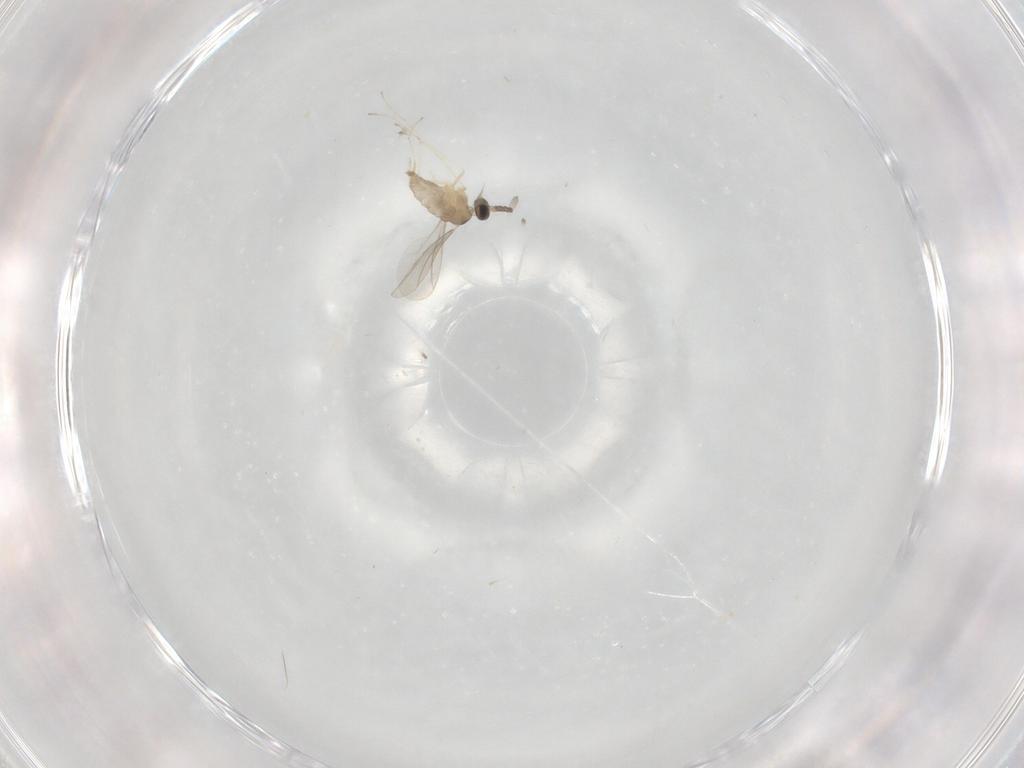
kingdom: Animalia
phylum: Arthropoda
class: Insecta
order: Diptera
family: Cecidomyiidae
